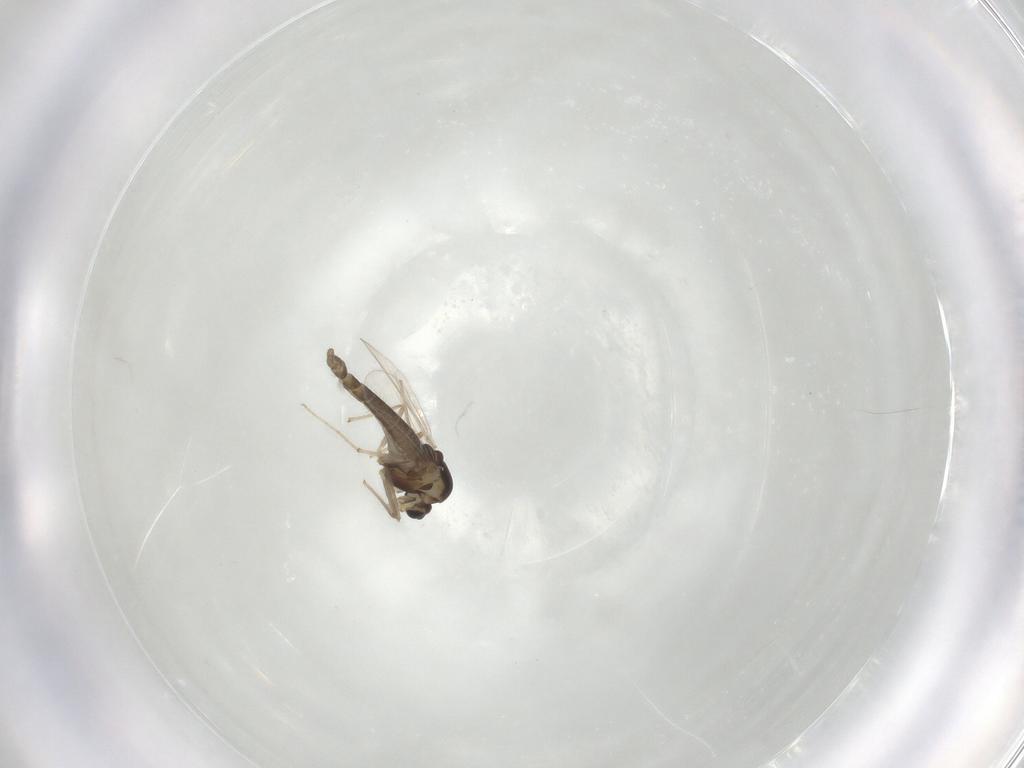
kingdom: Animalia
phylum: Arthropoda
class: Insecta
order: Diptera
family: Chironomidae
